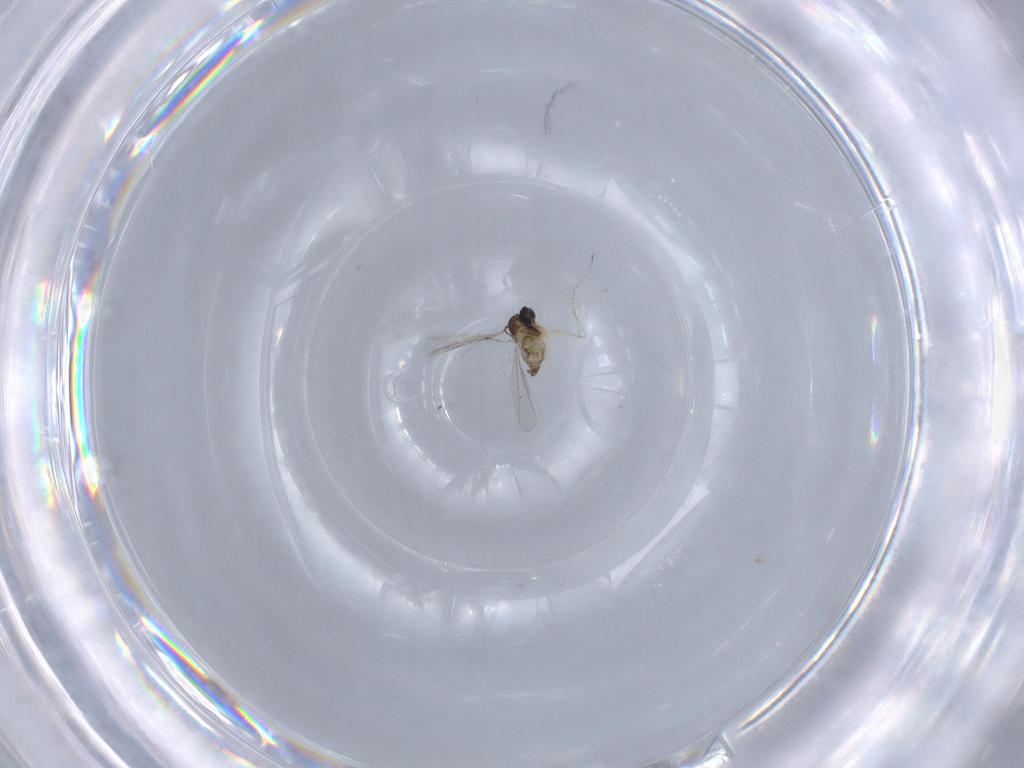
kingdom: Animalia
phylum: Arthropoda
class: Insecta
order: Diptera
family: Cecidomyiidae
